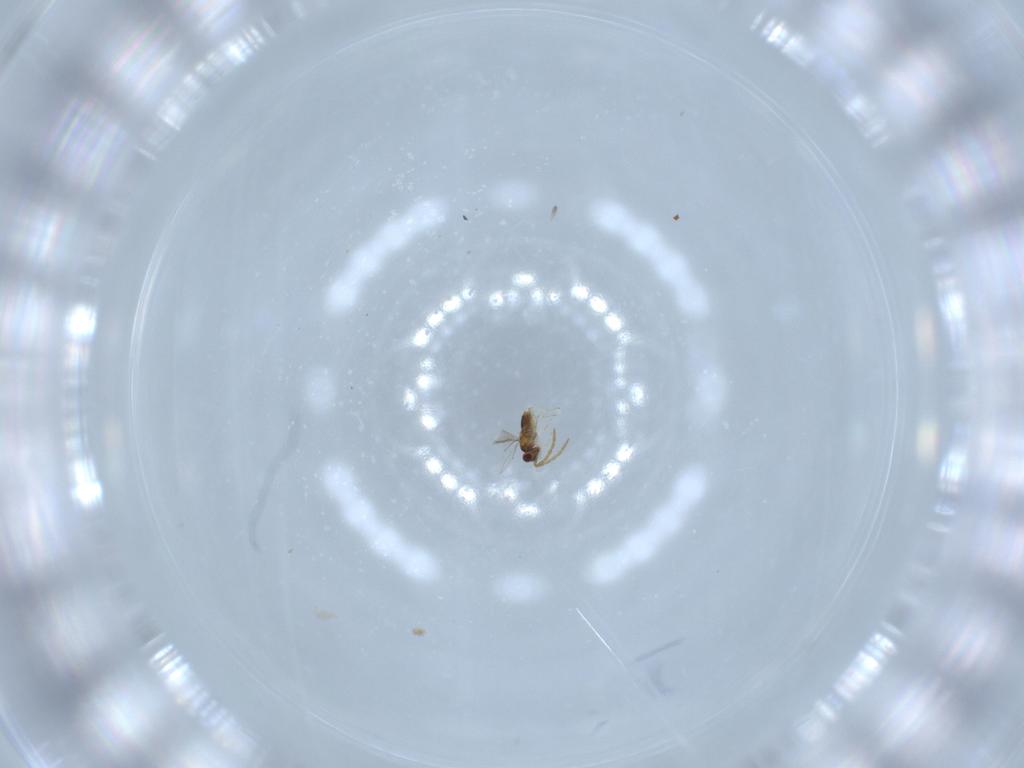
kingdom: Animalia
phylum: Arthropoda
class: Insecta
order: Hymenoptera
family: Aphelinidae
